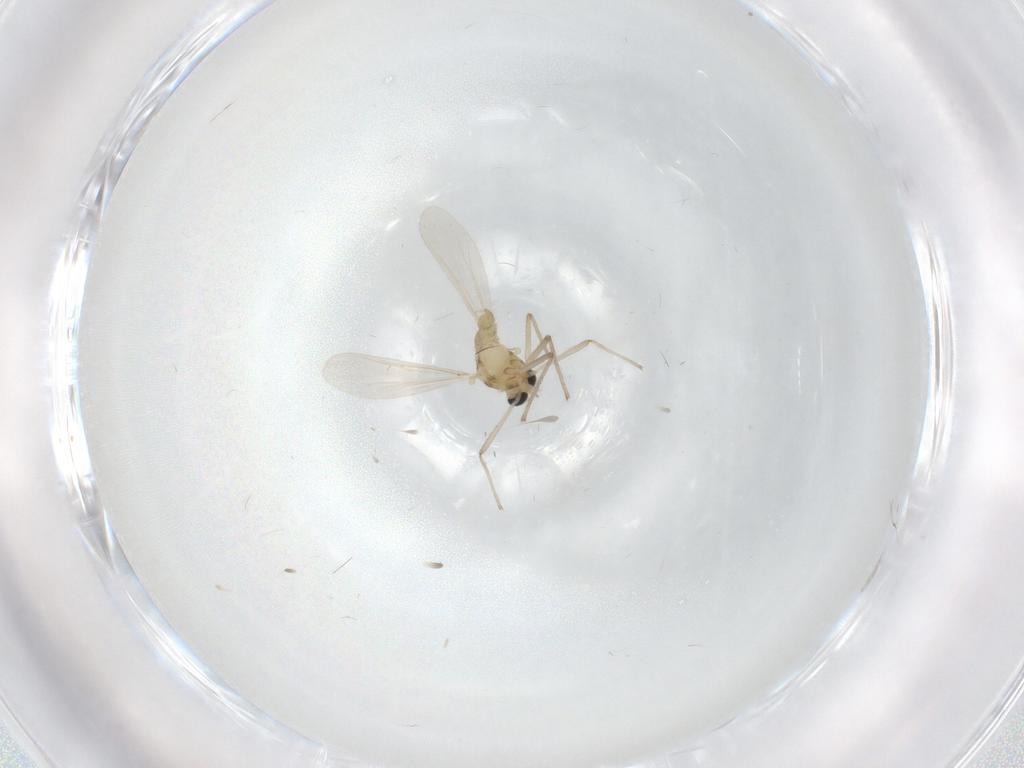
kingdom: Animalia
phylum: Arthropoda
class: Insecta
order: Diptera
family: Chironomidae
